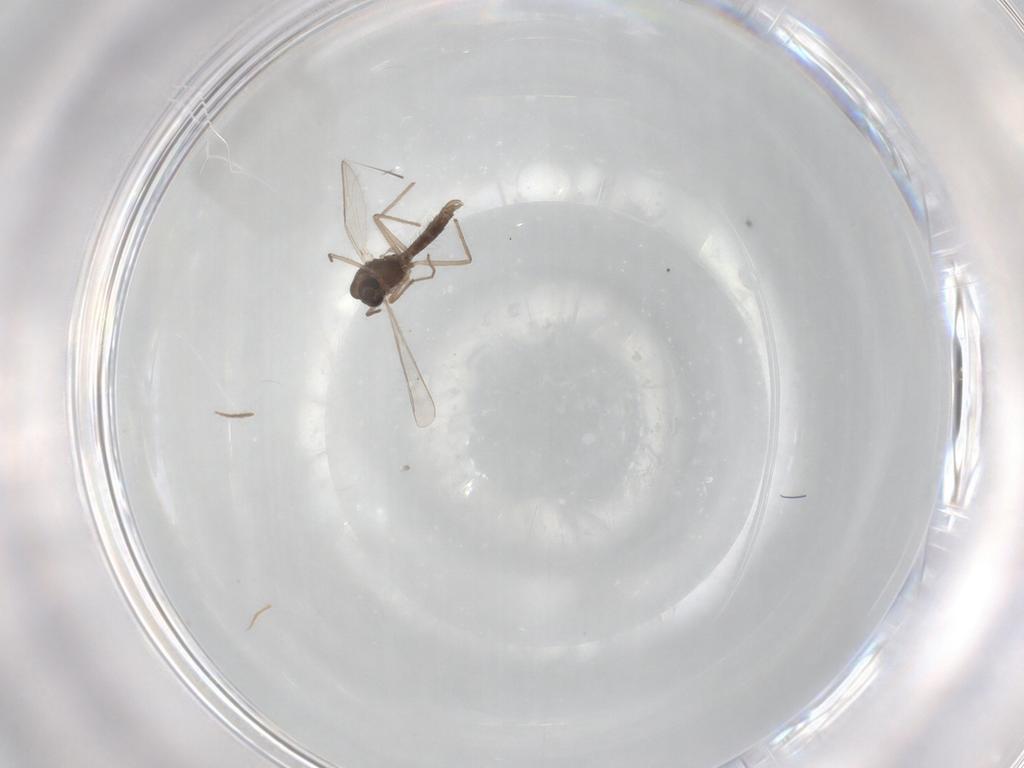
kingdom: Animalia
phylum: Arthropoda
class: Insecta
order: Diptera
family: Chironomidae
